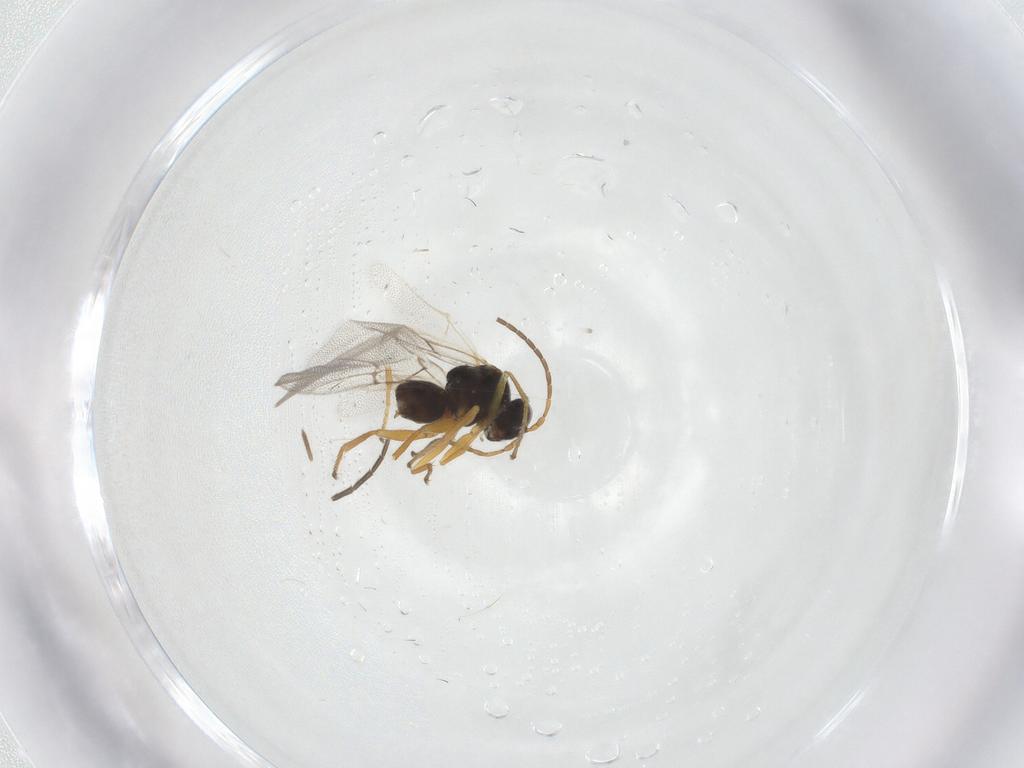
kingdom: Animalia
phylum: Arthropoda
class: Insecta
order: Hymenoptera
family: Cynipidae
